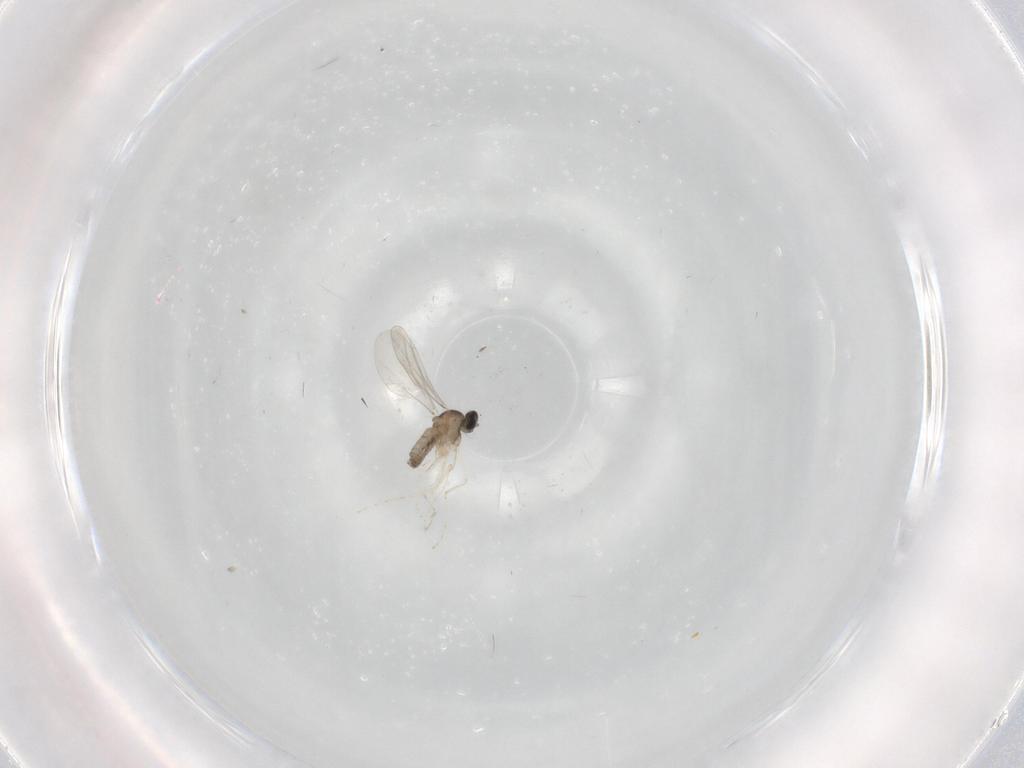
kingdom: Animalia
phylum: Arthropoda
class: Insecta
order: Diptera
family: Cecidomyiidae
